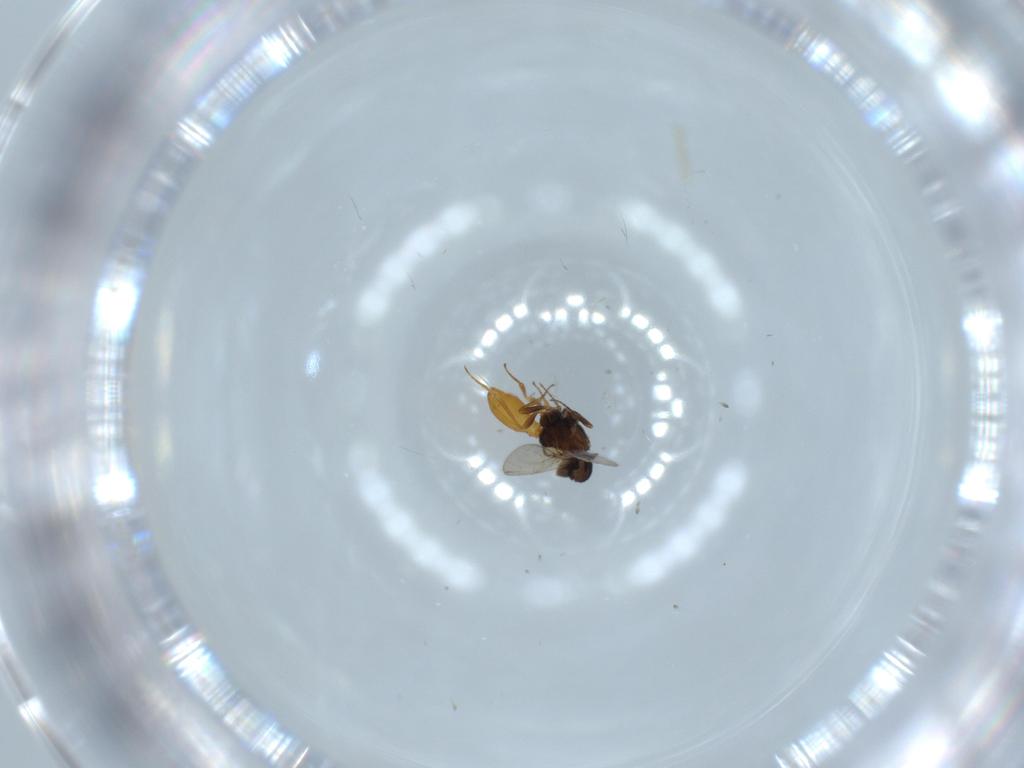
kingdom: Animalia
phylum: Arthropoda
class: Insecta
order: Hymenoptera
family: Scelionidae
